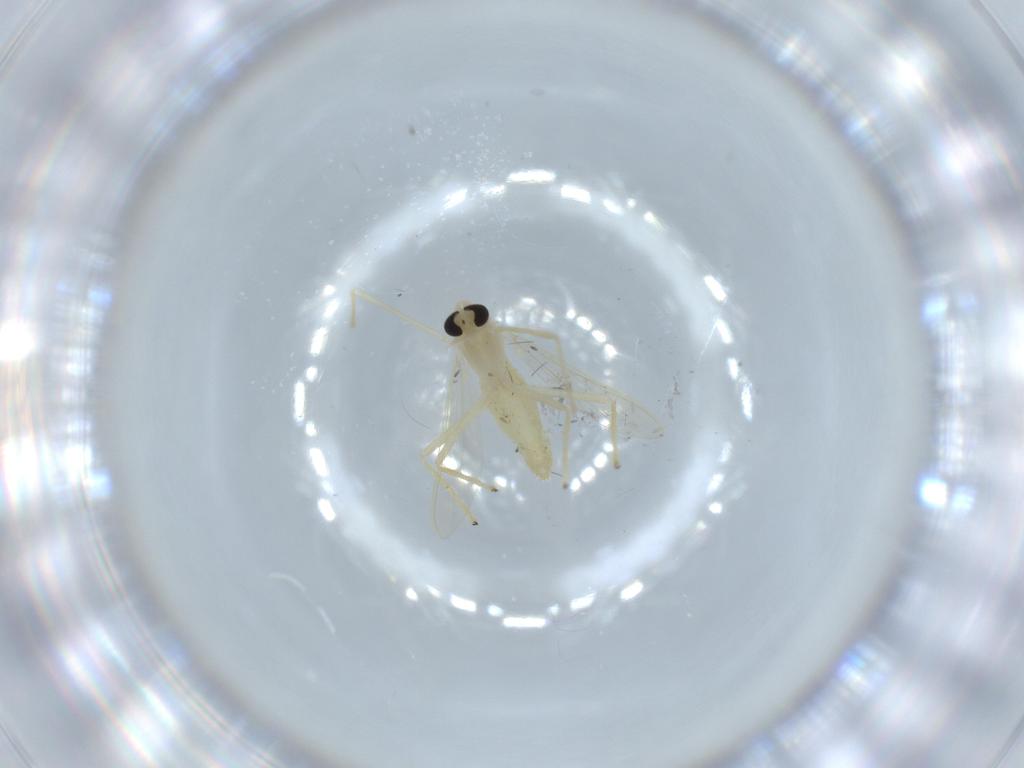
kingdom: Animalia
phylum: Arthropoda
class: Insecta
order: Diptera
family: Chironomidae
